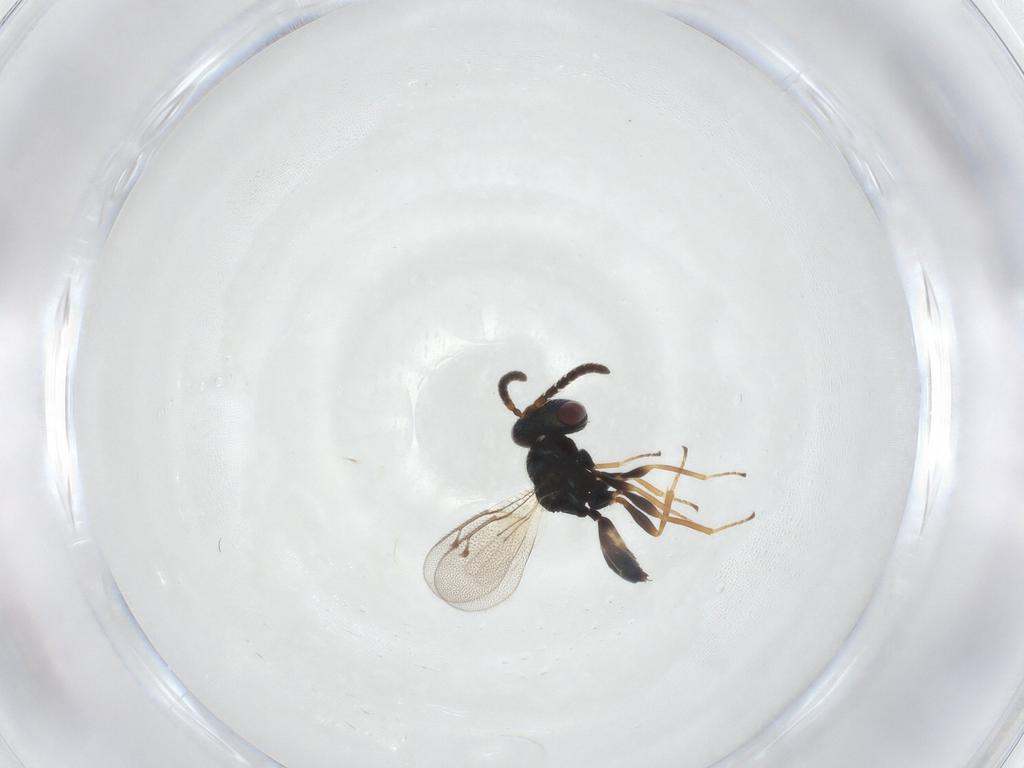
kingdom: Animalia
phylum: Arthropoda
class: Insecta
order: Hymenoptera
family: Pteromalidae
